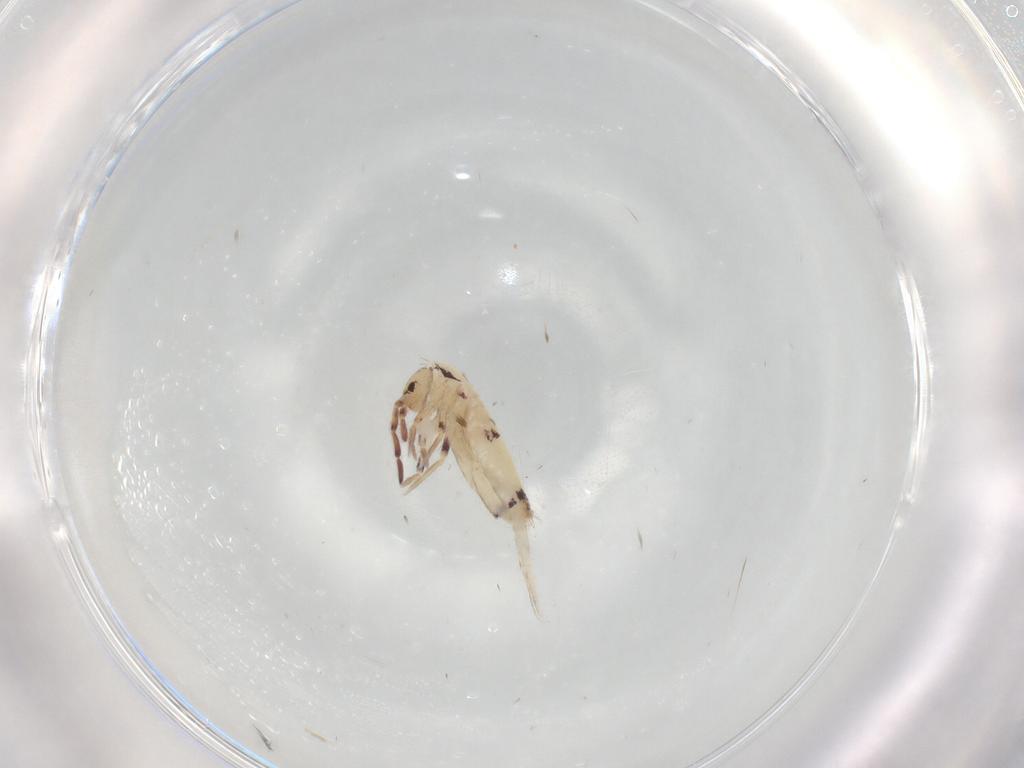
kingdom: Animalia
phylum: Arthropoda
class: Collembola
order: Entomobryomorpha
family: Entomobryidae
